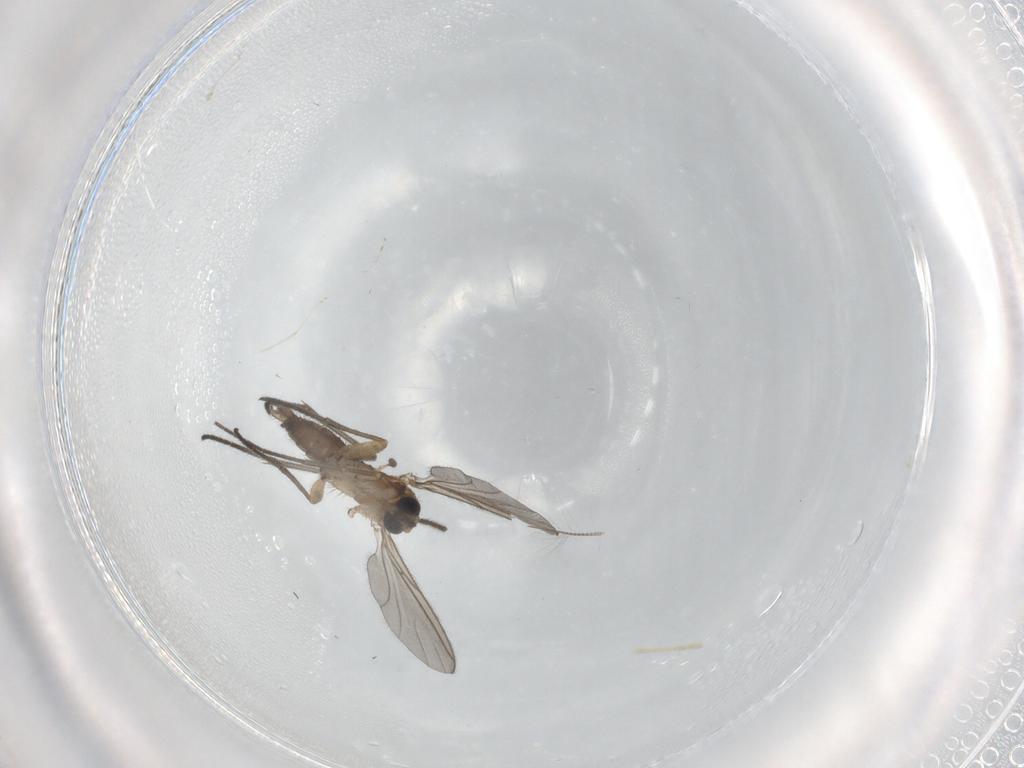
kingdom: Animalia
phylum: Arthropoda
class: Insecta
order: Diptera
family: Sciaridae
